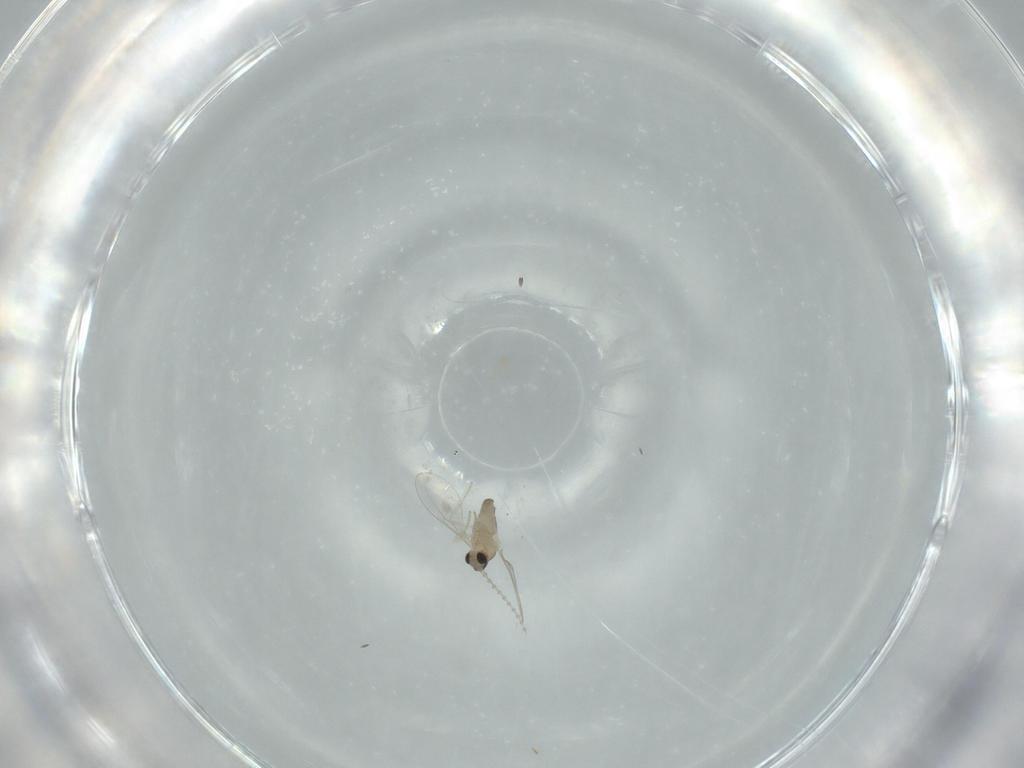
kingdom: Animalia
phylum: Arthropoda
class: Insecta
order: Diptera
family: Cecidomyiidae
